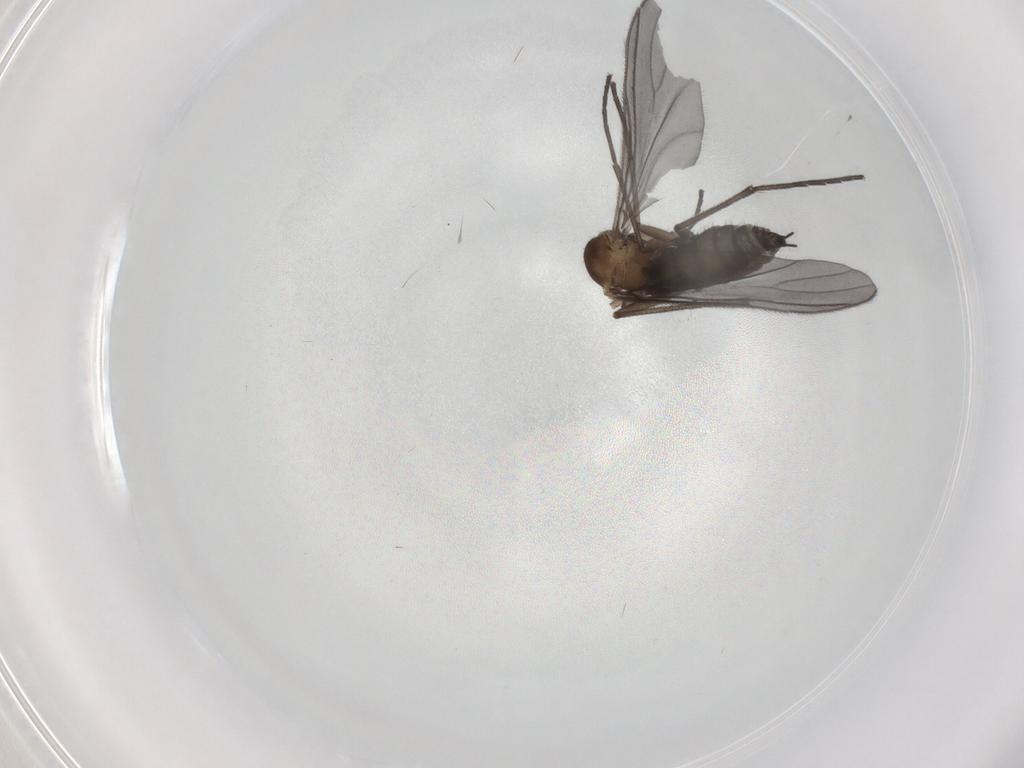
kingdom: Animalia
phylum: Arthropoda
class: Insecta
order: Diptera
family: Sciaridae
